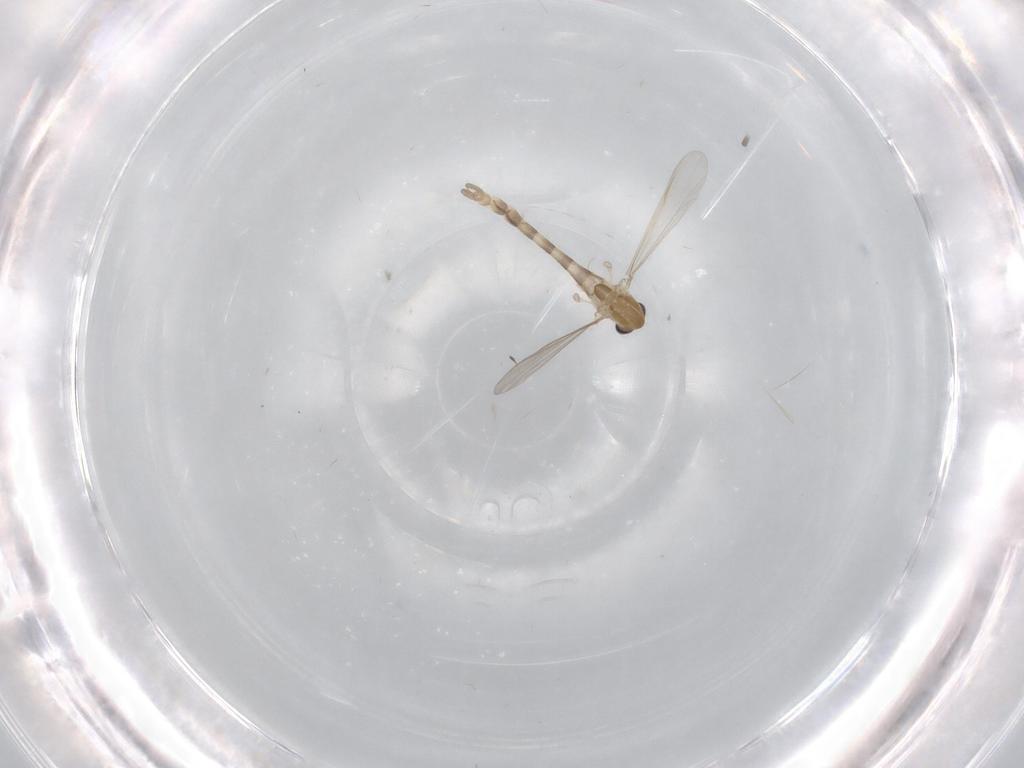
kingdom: Animalia
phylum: Arthropoda
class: Insecta
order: Diptera
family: Chironomidae
